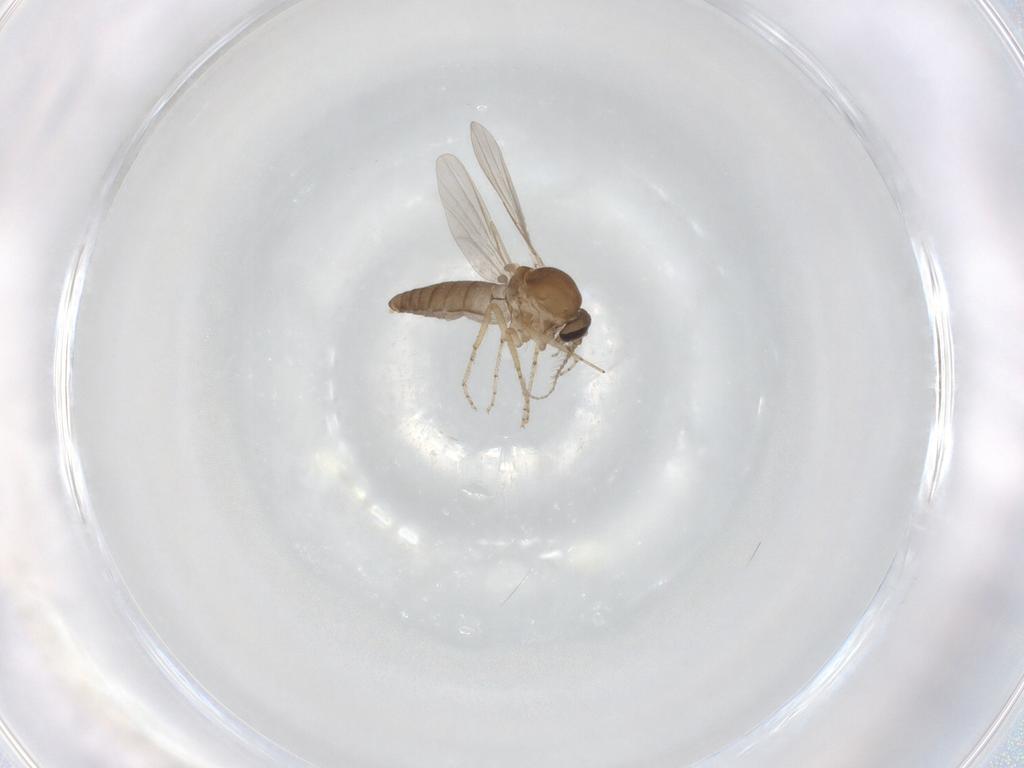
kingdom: Animalia
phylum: Arthropoda
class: Insecta
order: Diptera
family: Ceratopogonidae
